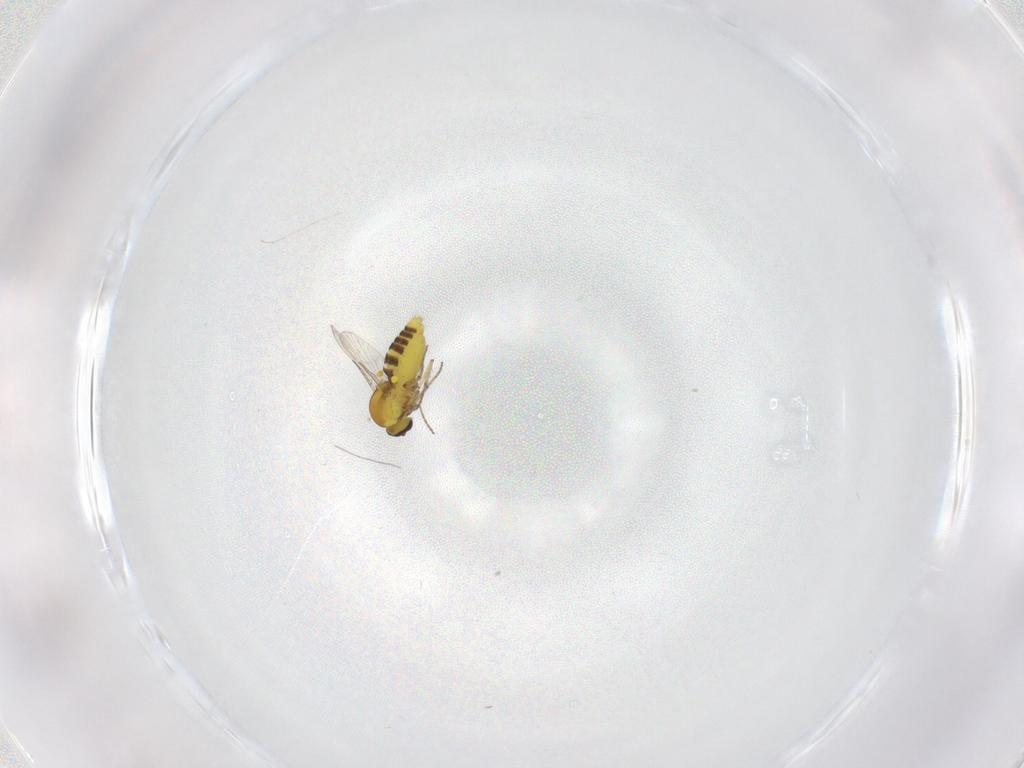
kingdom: Animalia
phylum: Arthropoda
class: Insecta
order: Diptera
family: Ceratopogonidae
